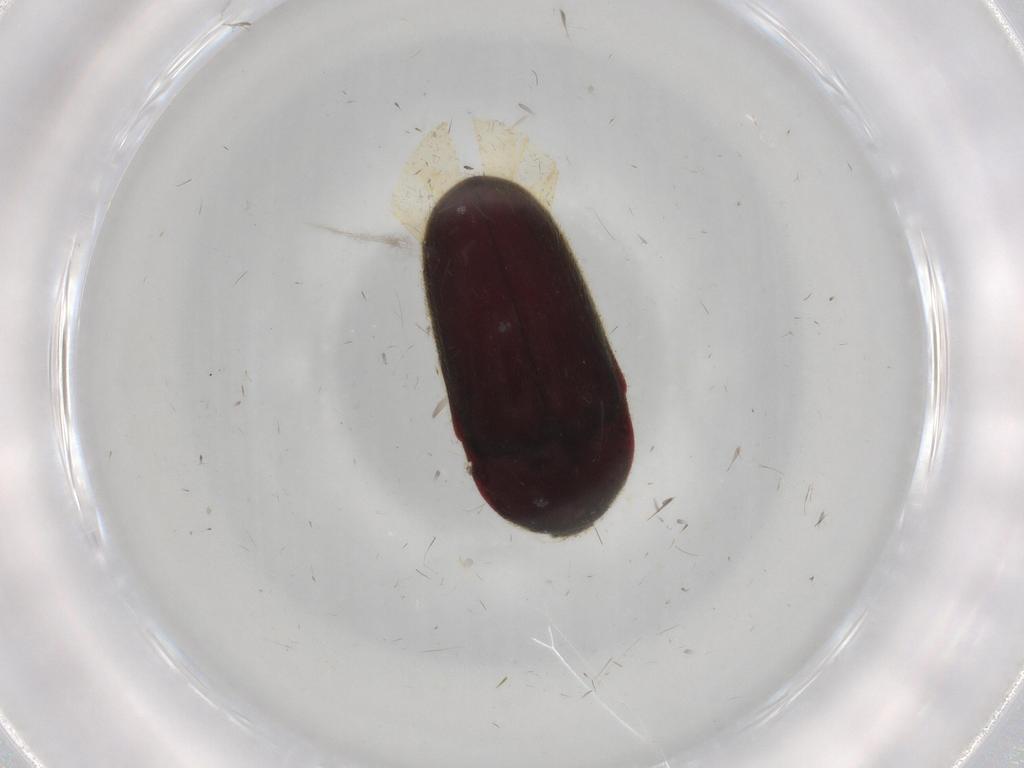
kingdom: Animalia
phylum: Arthropoda
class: Insecta
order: Coleoptera
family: Throscidae
